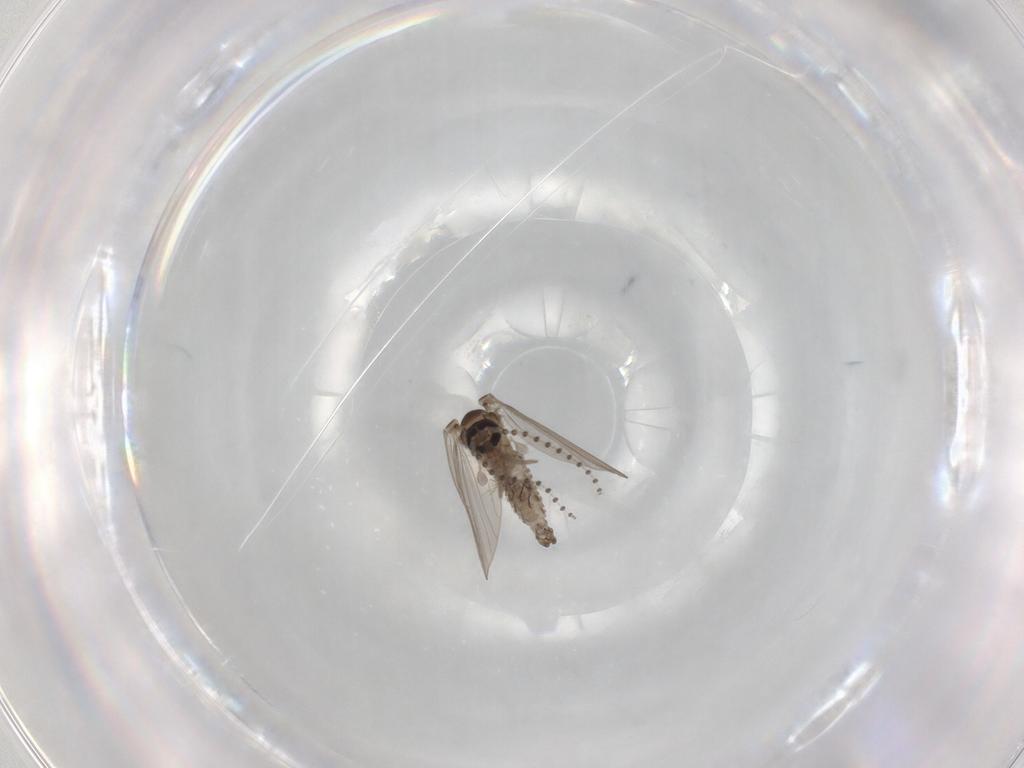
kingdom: Animalia
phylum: Arthropoda
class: Insecta
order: Diptera
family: Psychodidae
